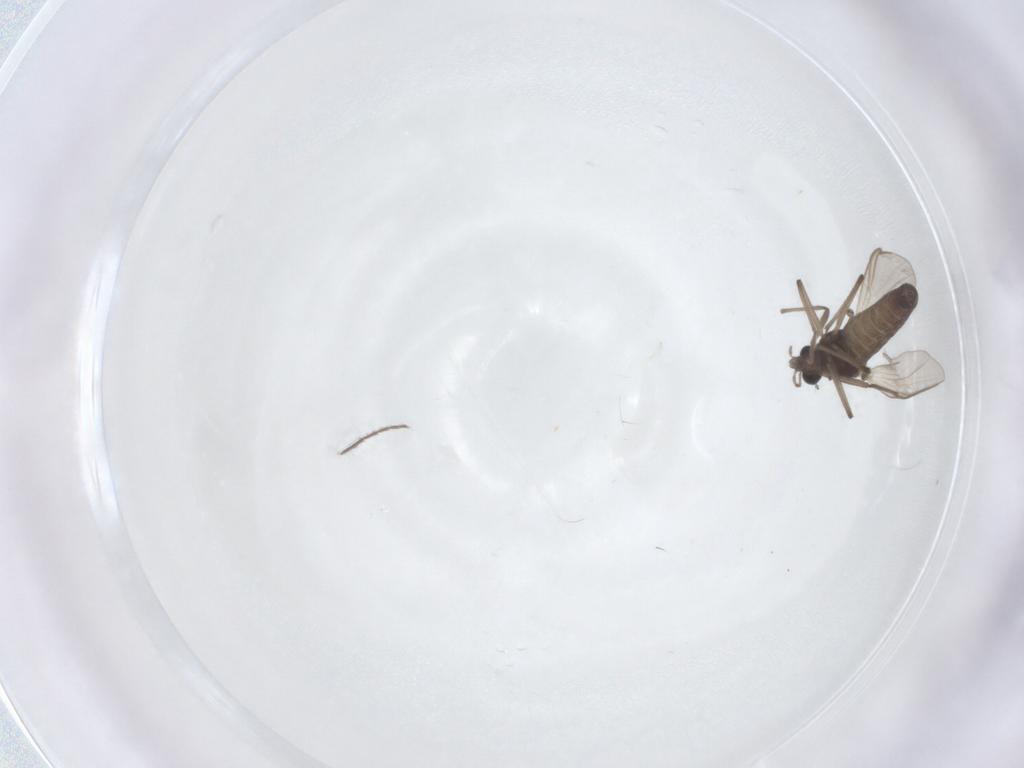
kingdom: Animalia
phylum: Arthropoda
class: Insecta
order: Diptera
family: Chironomidae
